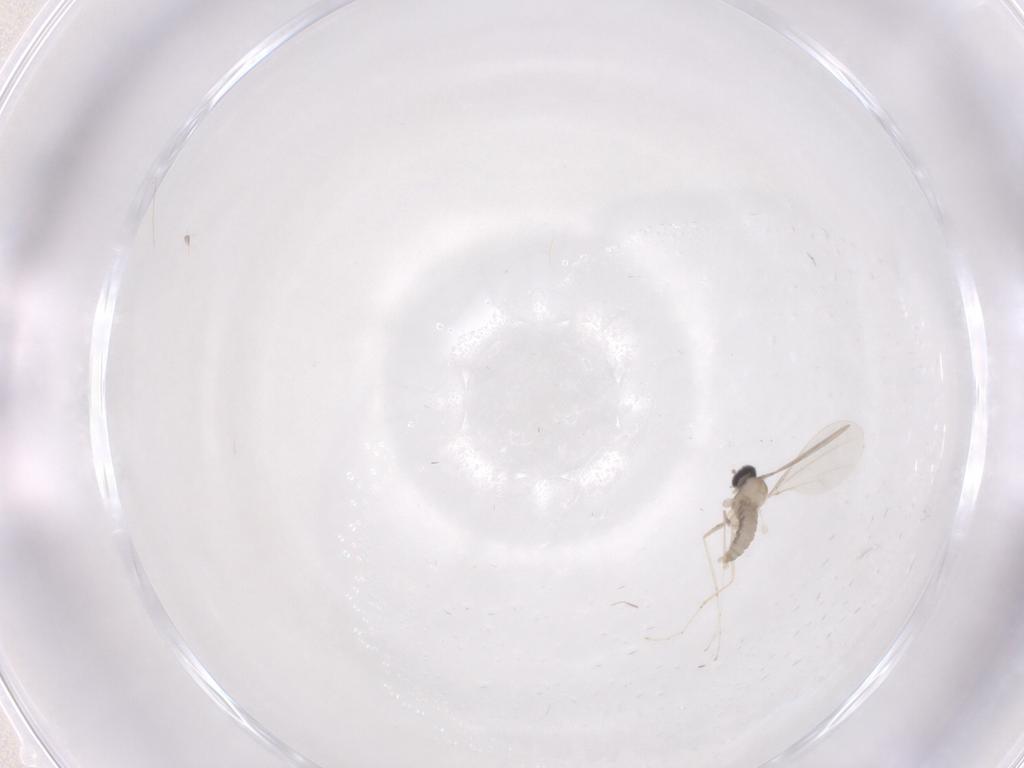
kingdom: Animalia
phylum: Arthropoda
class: Insecta
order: Diptera
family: Cecidomyiidae
